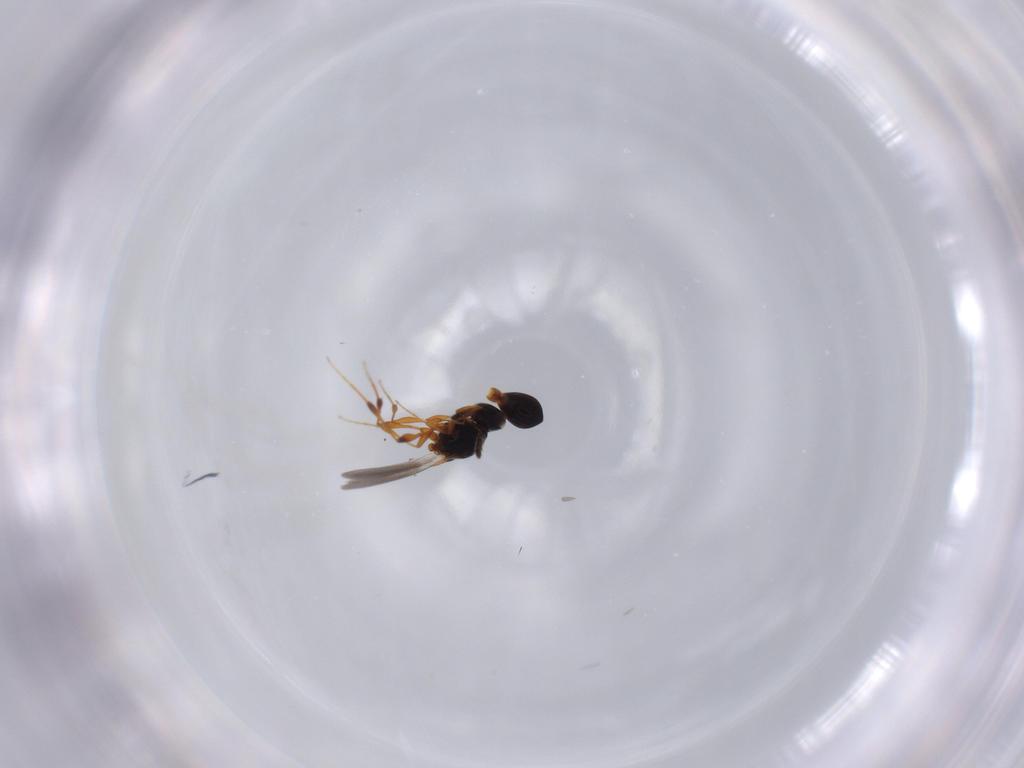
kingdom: Animalia
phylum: Arthropoda
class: Insecta
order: Hymenoptera
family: Platygastridae
